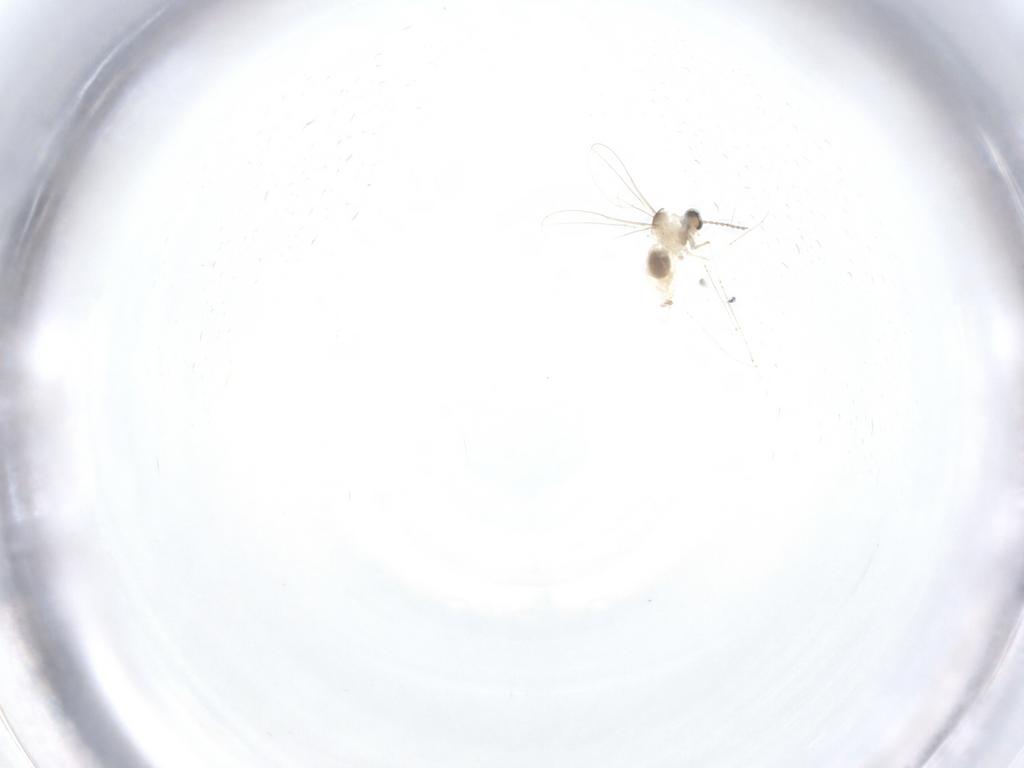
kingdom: Animalia
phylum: Arthropoda
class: Insecta
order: Diptera
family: Cecidomyiidae
